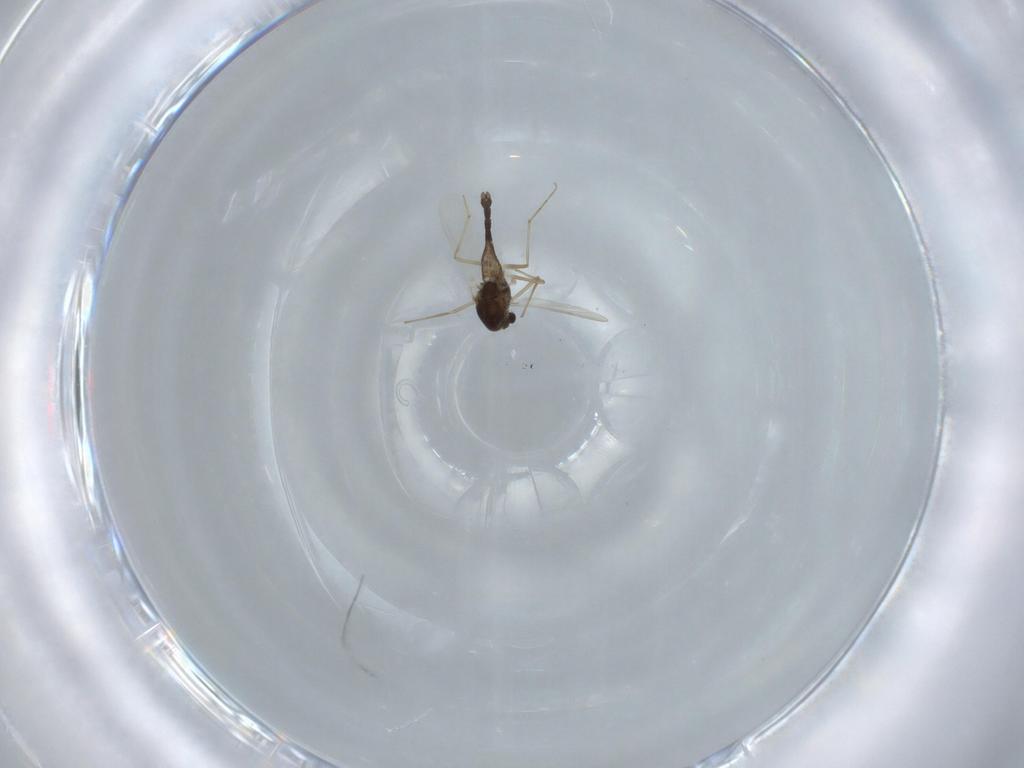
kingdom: Animalia
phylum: Arthropoda
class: Insecta
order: Diptera
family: Chironomidae
